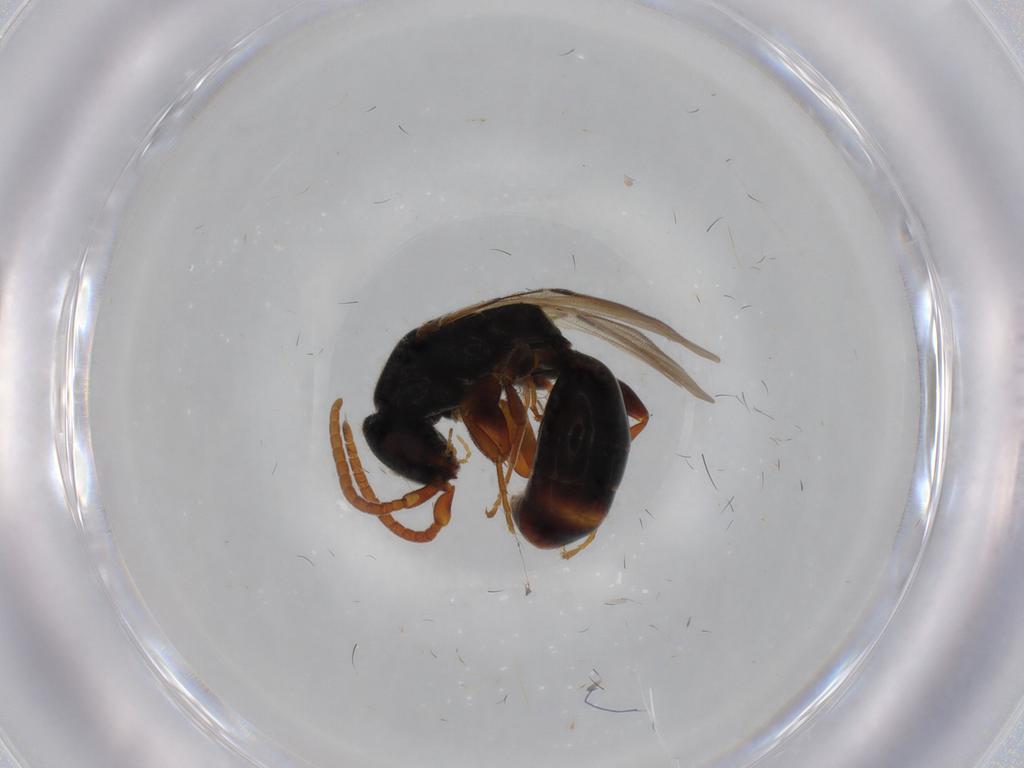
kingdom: Animalia
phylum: Arthropoda
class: Insecta
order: Hymenoptera
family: Bethylidae
